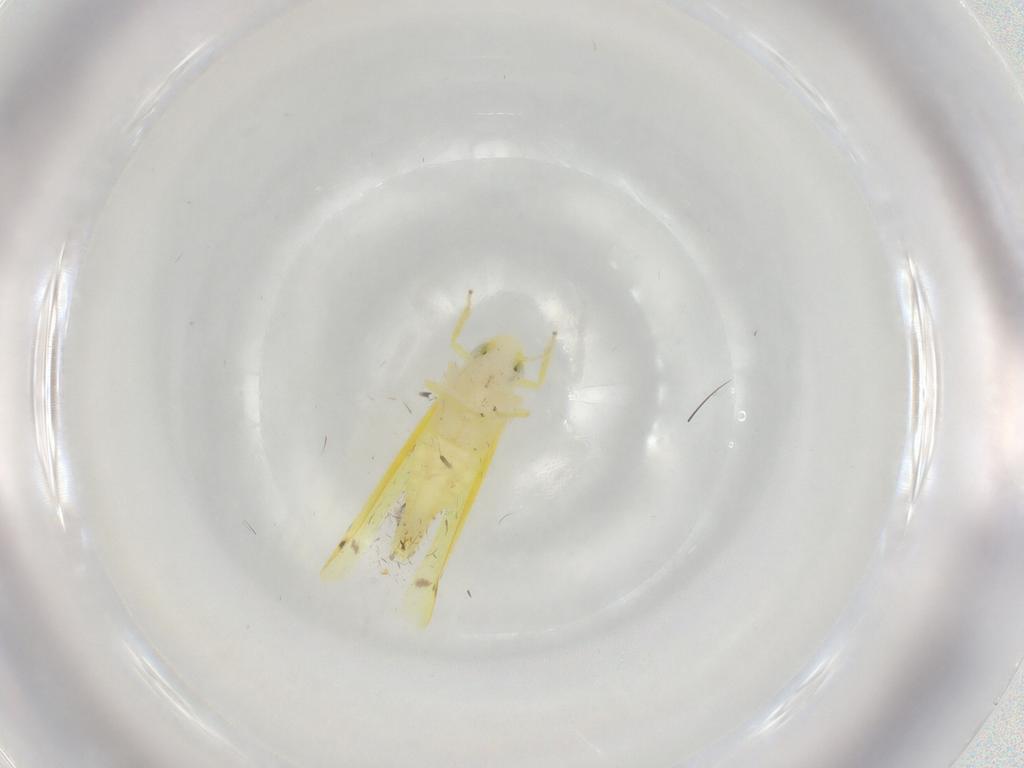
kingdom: Animalia
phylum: Arthropoda
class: Insecta
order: Hemiptera
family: Cicadellidae
